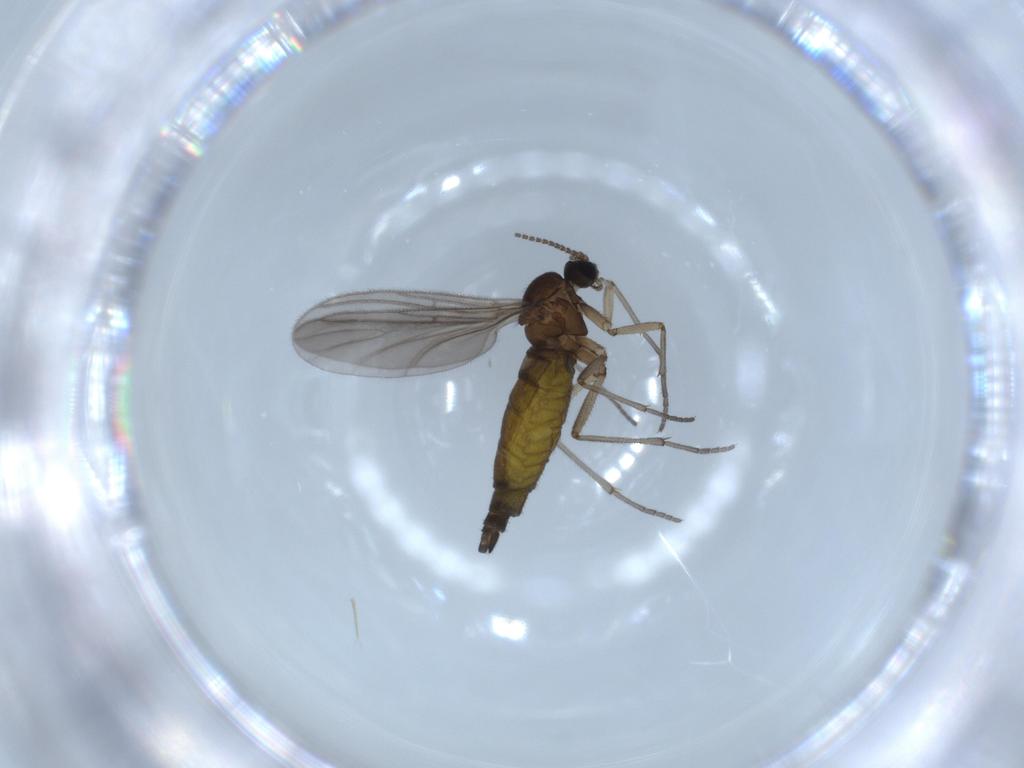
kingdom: Animalia
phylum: Arthropoda
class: Insecta
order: Diptera
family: Sciaridae
